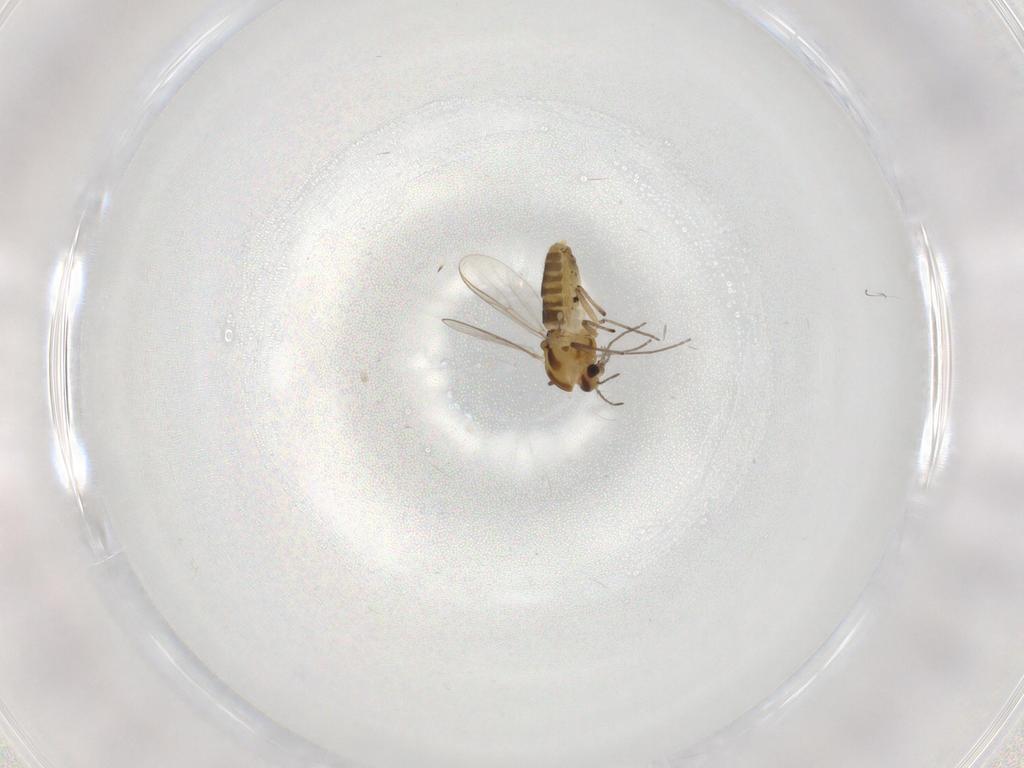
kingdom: Animalia
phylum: Arthropoda
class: Insecta
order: Diptera
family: Chironomidae
